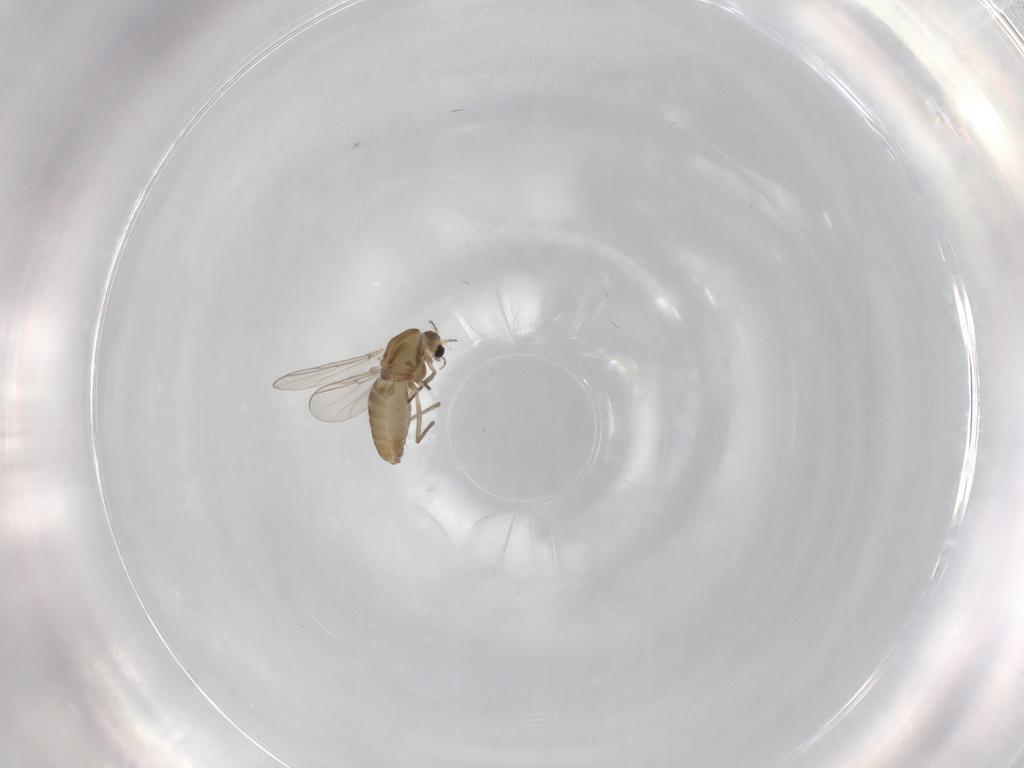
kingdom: Animalia
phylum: Arthropoda
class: Insecta
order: Diptera
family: Chironomidae
